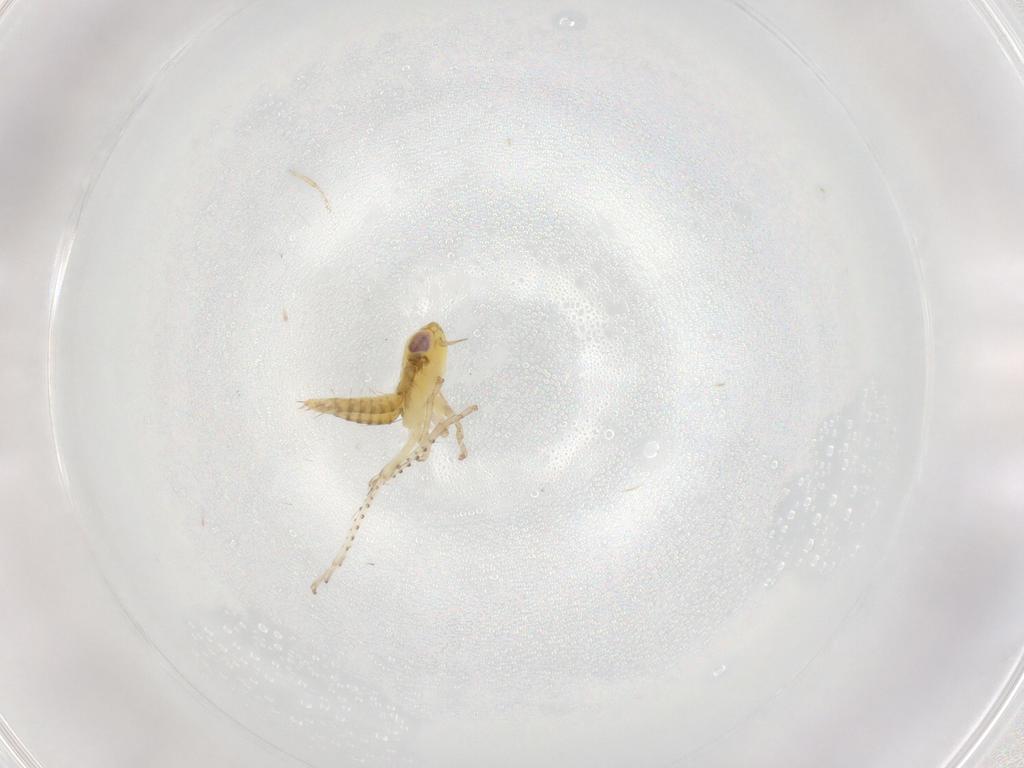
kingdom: Animalia
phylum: Arthropoda
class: Insecta
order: Hemiptera
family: Cicadellidae
